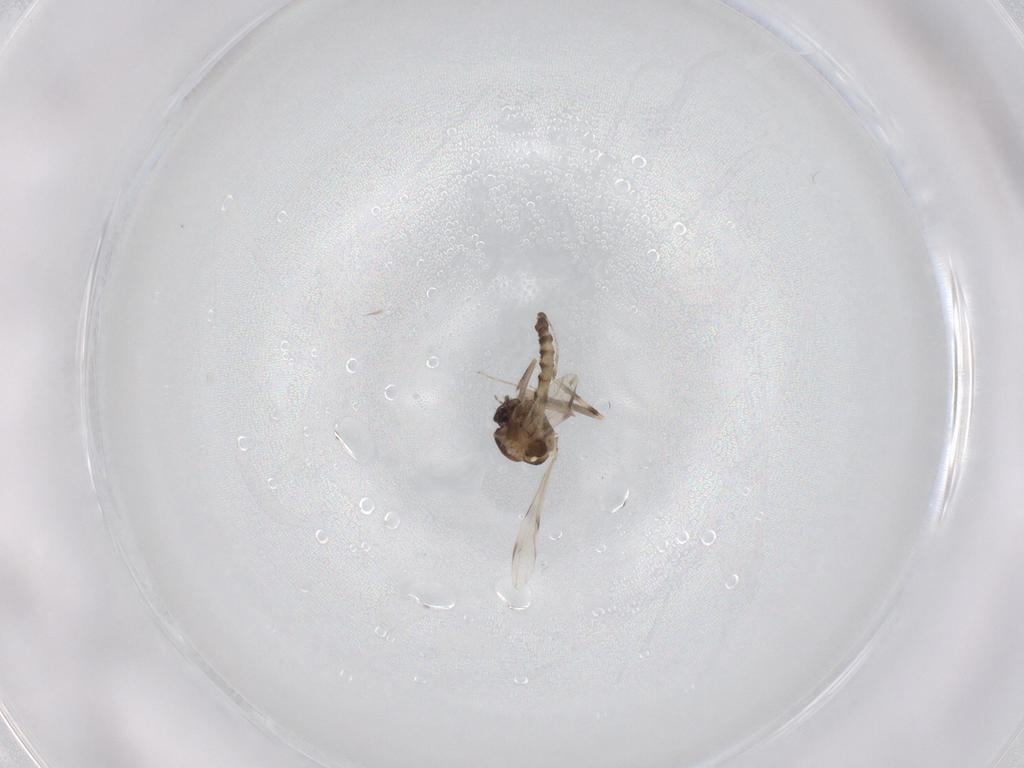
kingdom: Animalia
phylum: Arthropoda
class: Insecta
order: Diptera
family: Ceratopogonidae
